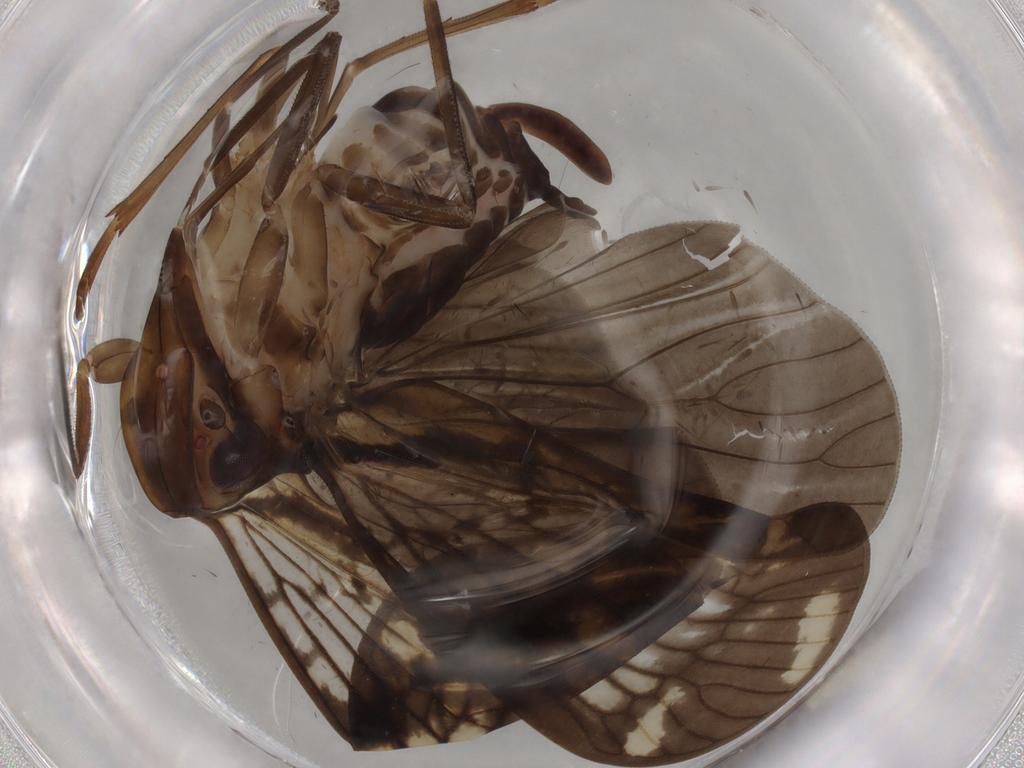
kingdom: Animalia
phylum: Arthropoda
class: Insecta
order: Hemiptera
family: Cixiidae
